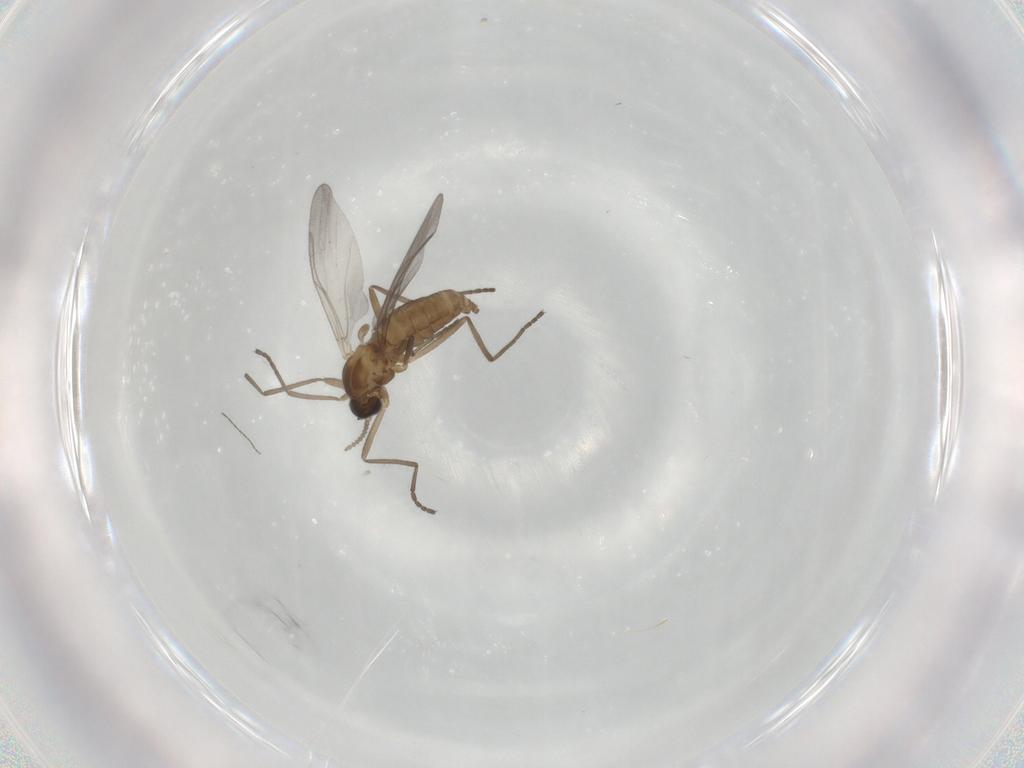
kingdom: Animalia
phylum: Arthropoda
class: Insecta
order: Diptera
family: Cecidomyiidae
